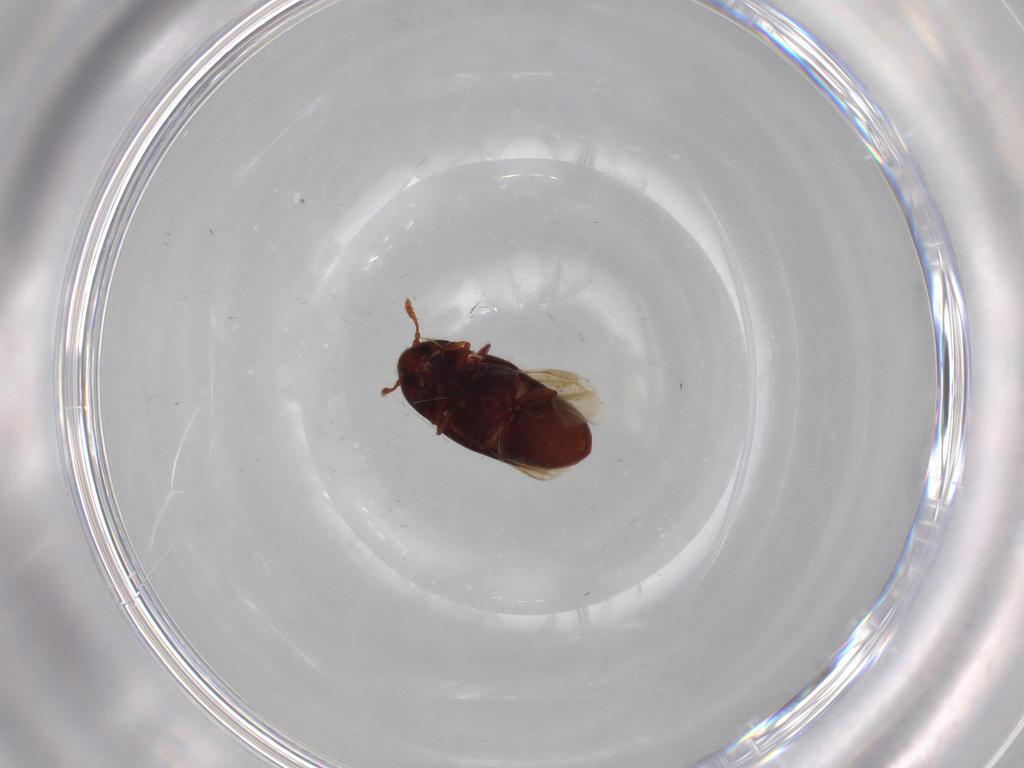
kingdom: Animalia
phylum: Arthropoda
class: Insecta
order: Coleoptera
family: Throscidae
